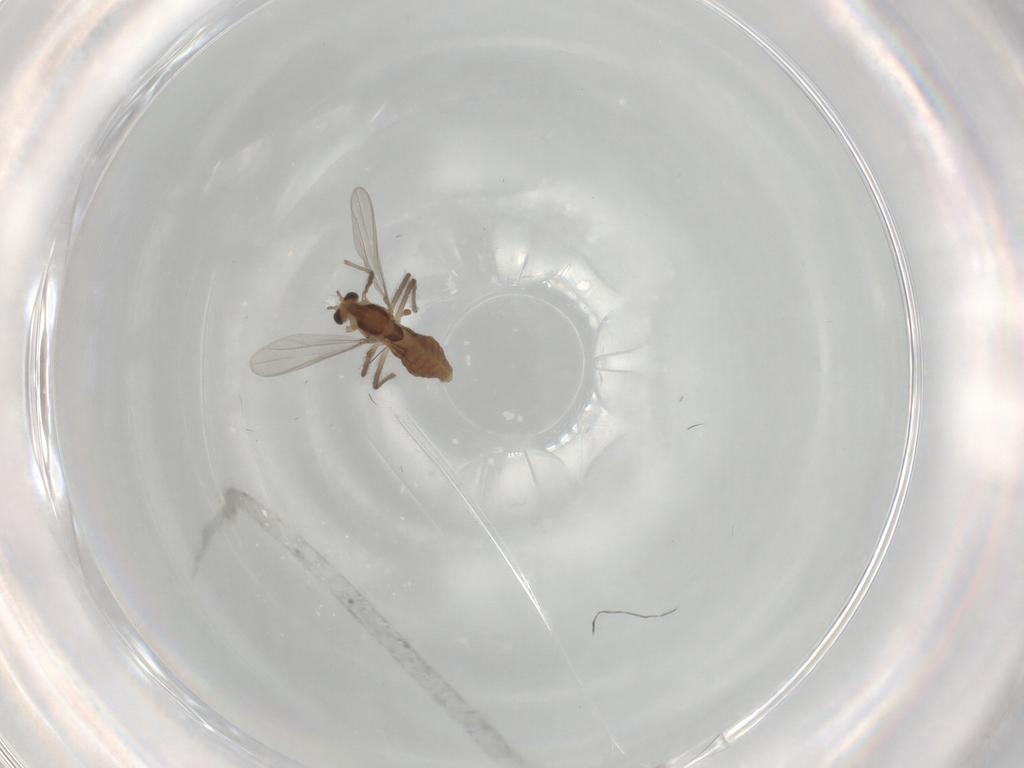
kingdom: Animalia
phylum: Arthropoda
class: Insecta
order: Diptera
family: Chironomidae
